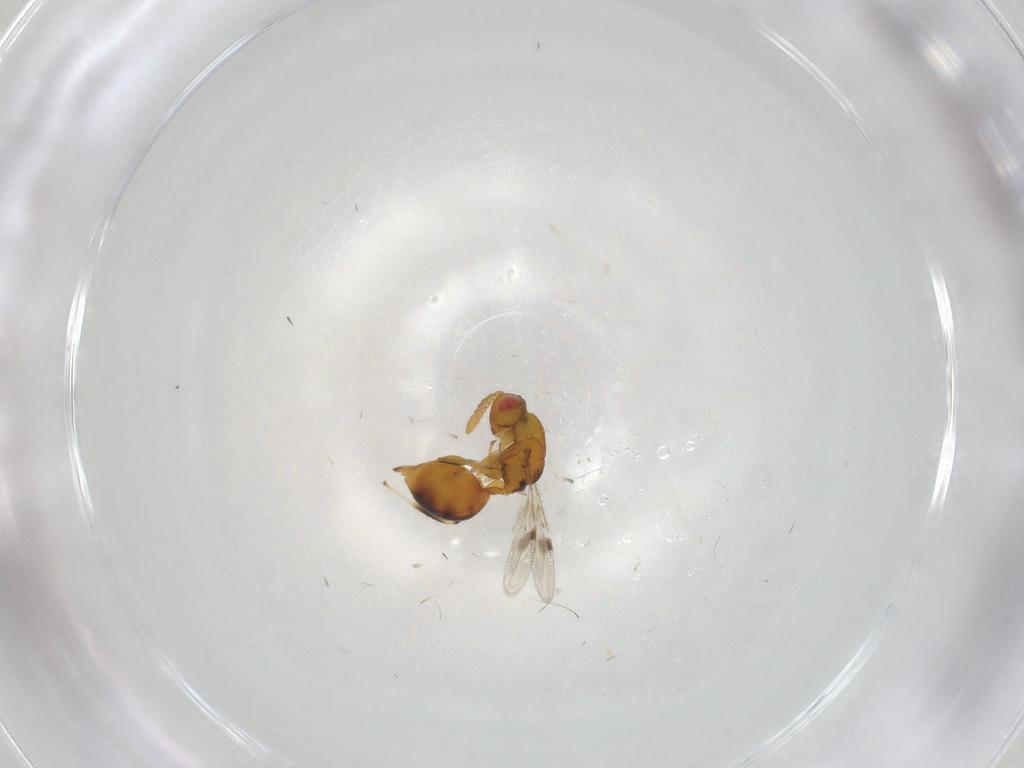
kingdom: Animalia
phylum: Arthropoda
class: Insecta
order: Hymenoptera
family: Eurytomidae
